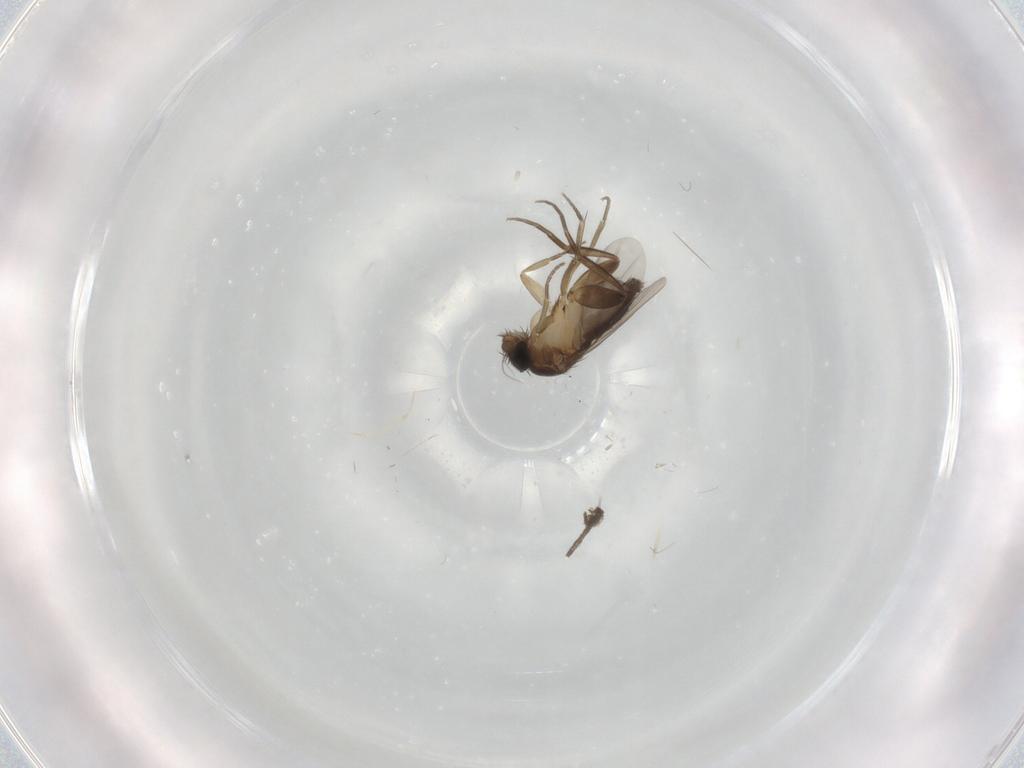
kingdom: Animalia
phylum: Arthropoda
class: Insecta
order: Diptera
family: Phoridae
